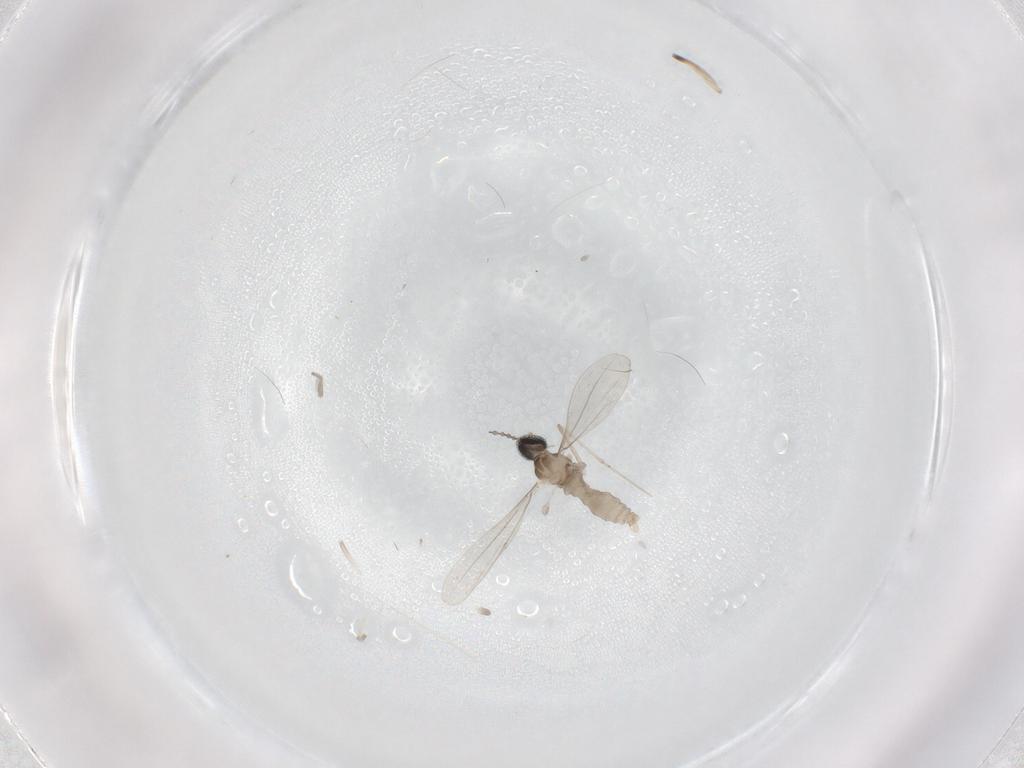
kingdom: Animalia
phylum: Arthropoda
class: Insecta
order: Diptera
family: Cecidomyiidae
